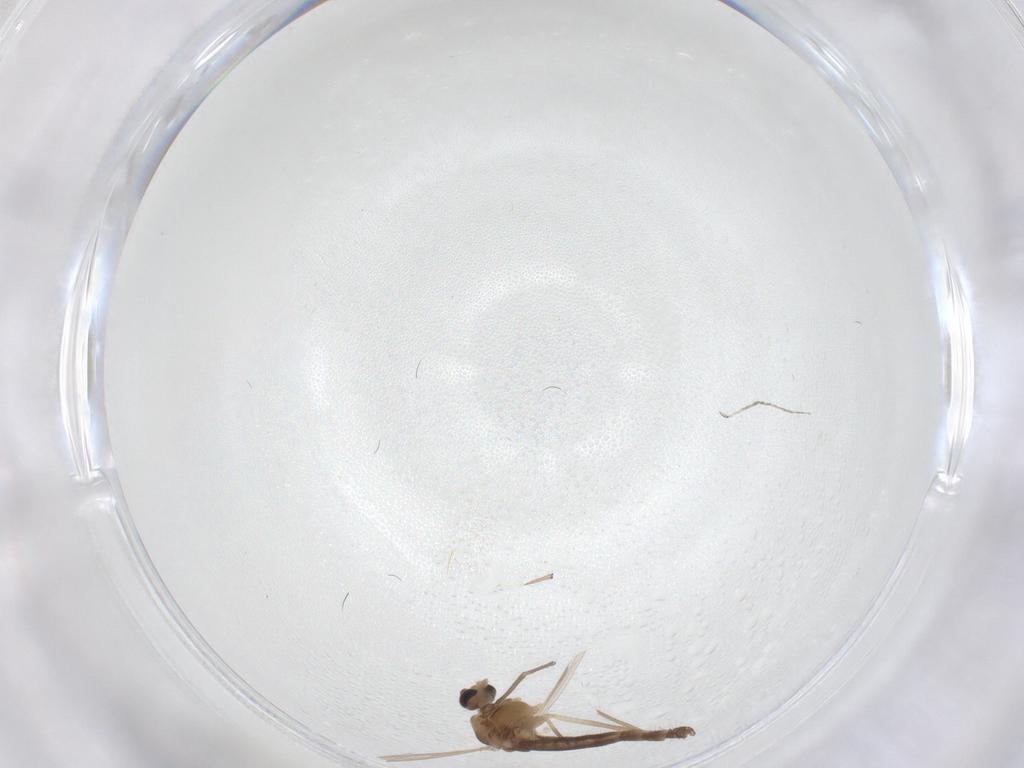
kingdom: Animalia
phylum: Arthropoda
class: Insecta
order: Diptera
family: Chironomidae
